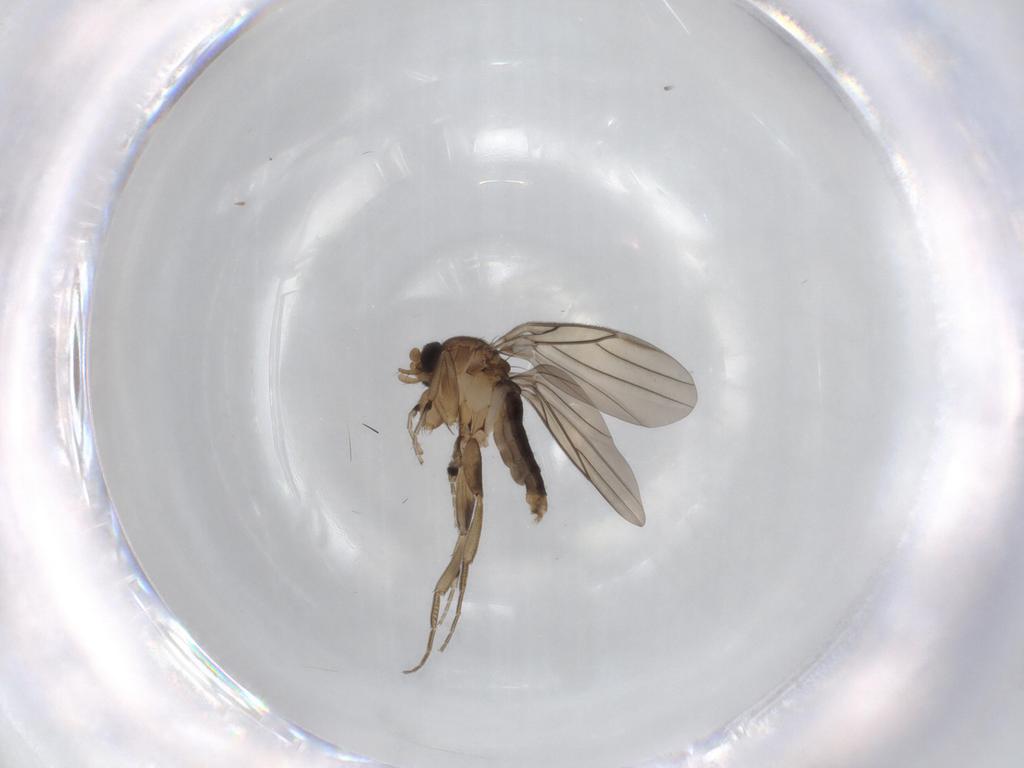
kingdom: Animalia
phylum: Arthropoda
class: Insecta
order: Diptera
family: Phoridae
